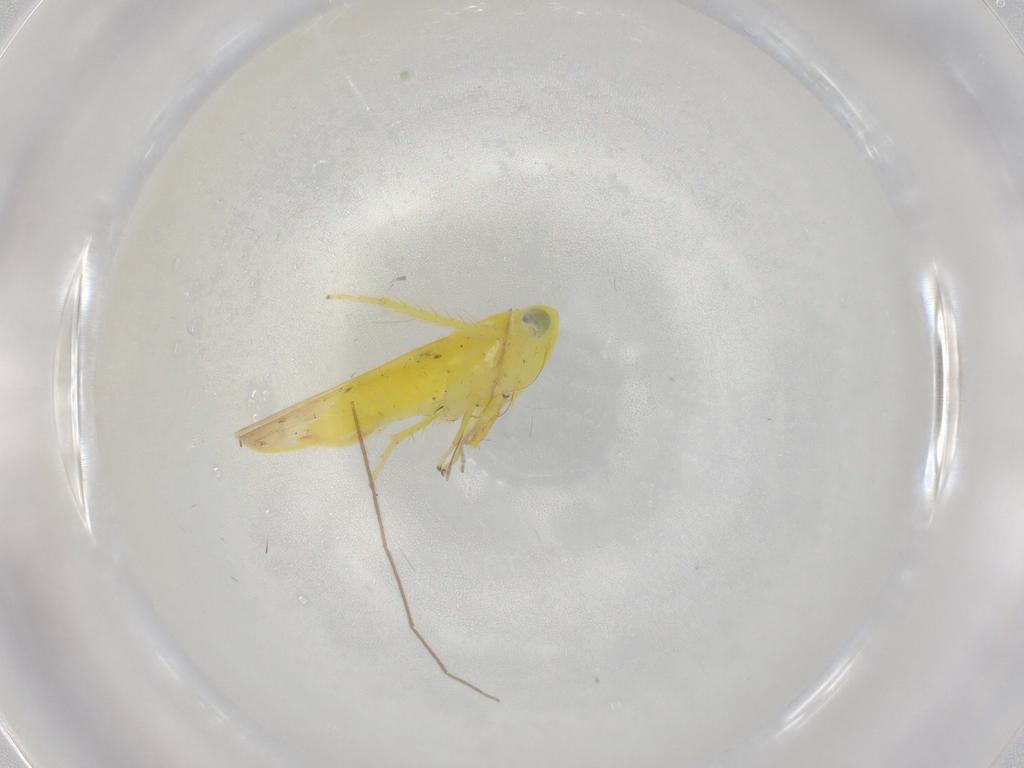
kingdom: Animalia
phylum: Arthropoda
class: Insecta
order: Hemiptera
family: Cicadellidae
